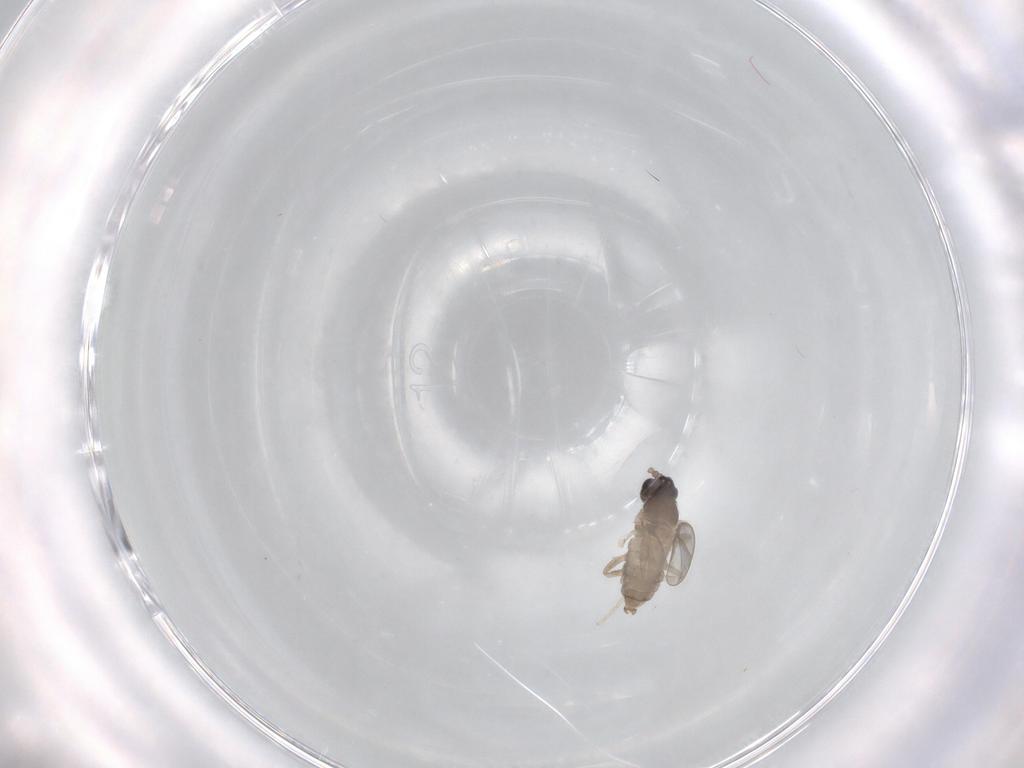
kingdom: Animalia
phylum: Arthropoda
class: Insecta
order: Diptera
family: Cecidomyiidae
